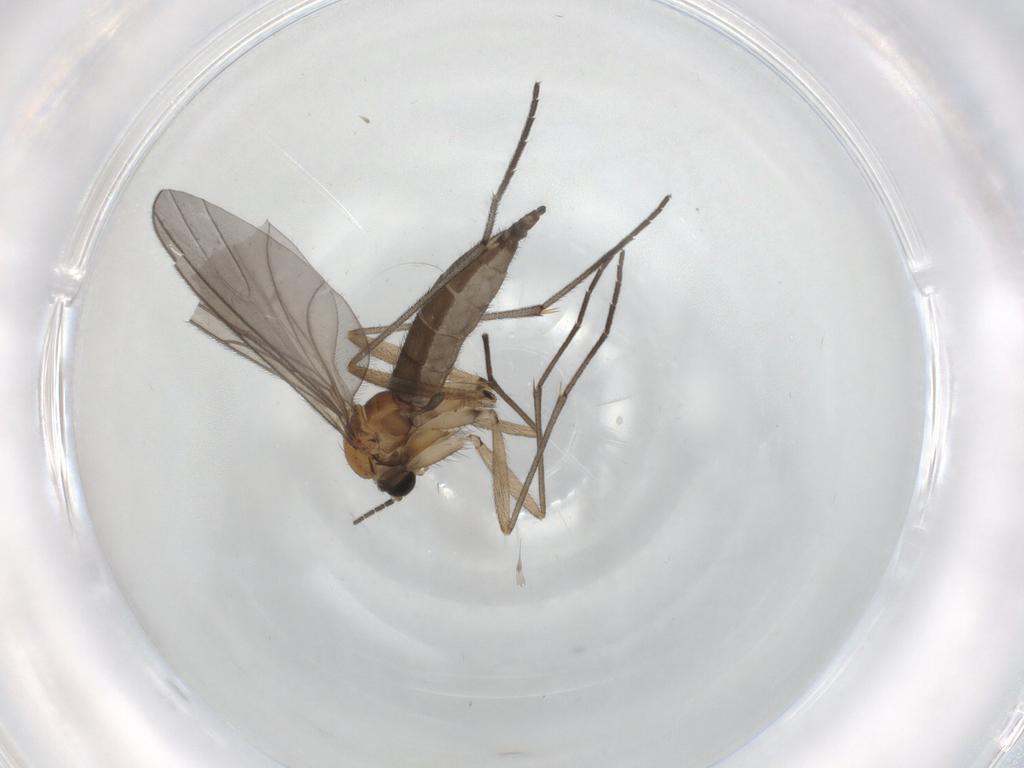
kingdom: Animalia
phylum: Arthropoda
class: Insecta
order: Diptera
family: Sciaridae
